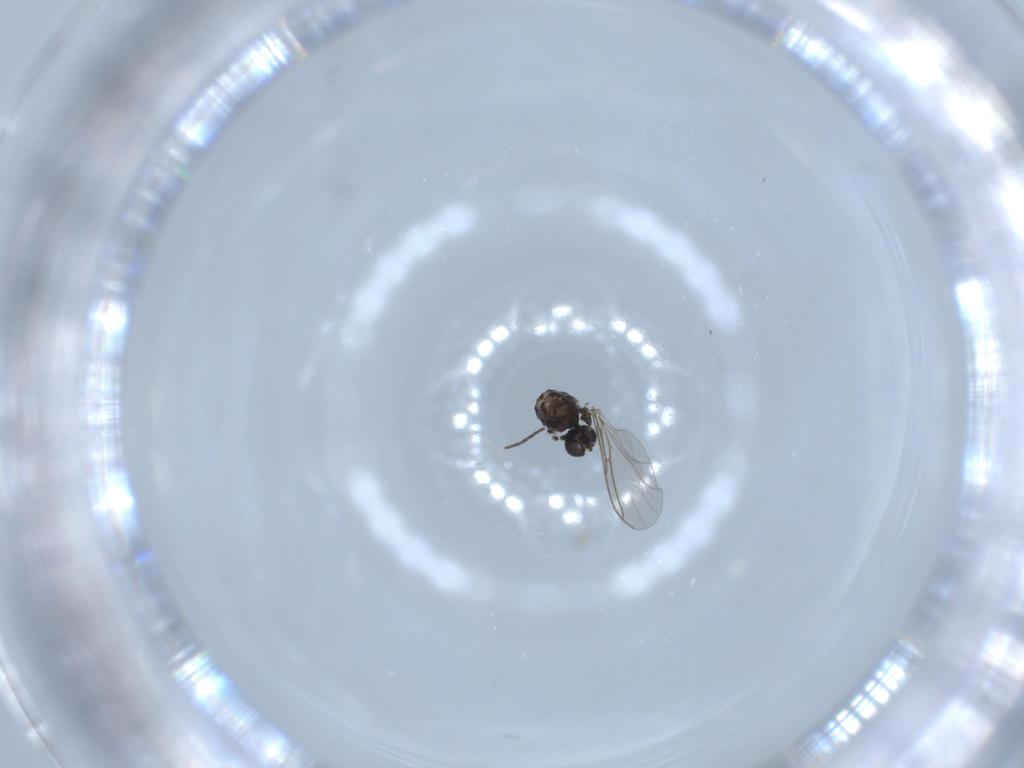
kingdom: Animalia
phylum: Arthropoda
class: Insecta
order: Diptera
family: Sciaridae
